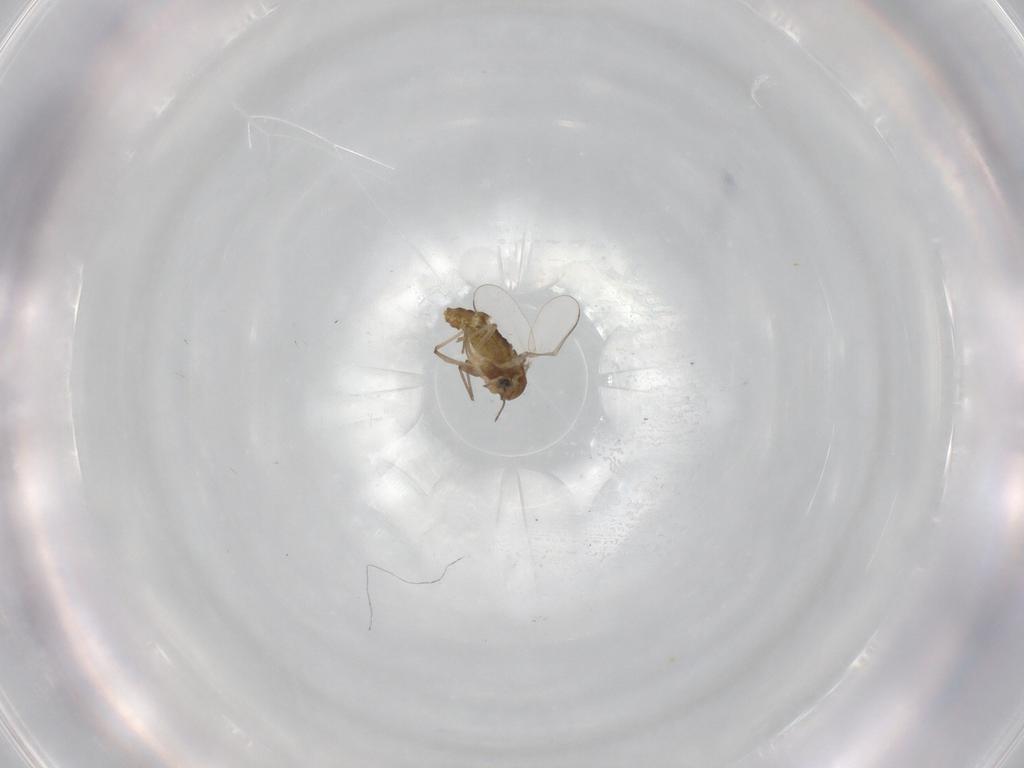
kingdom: Animalia
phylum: Arthropoda
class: Insecta
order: Diptera
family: Chironomidae
